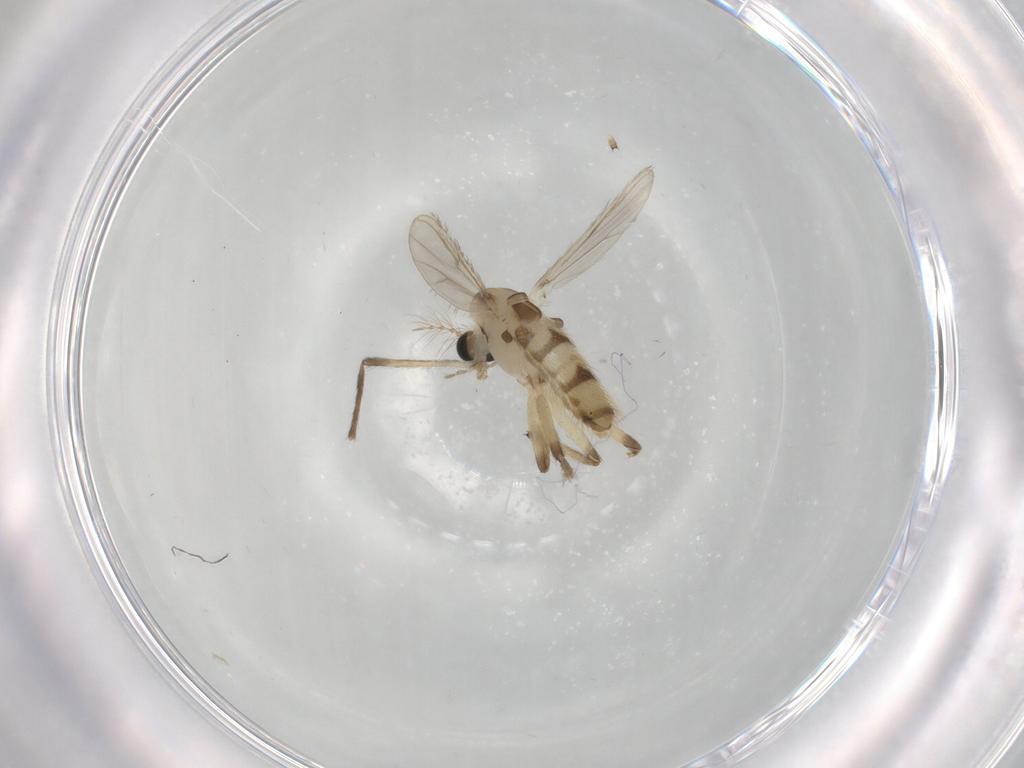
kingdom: Animalia
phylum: Arthropoda
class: Insecta
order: Diptera
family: Chironomidae
